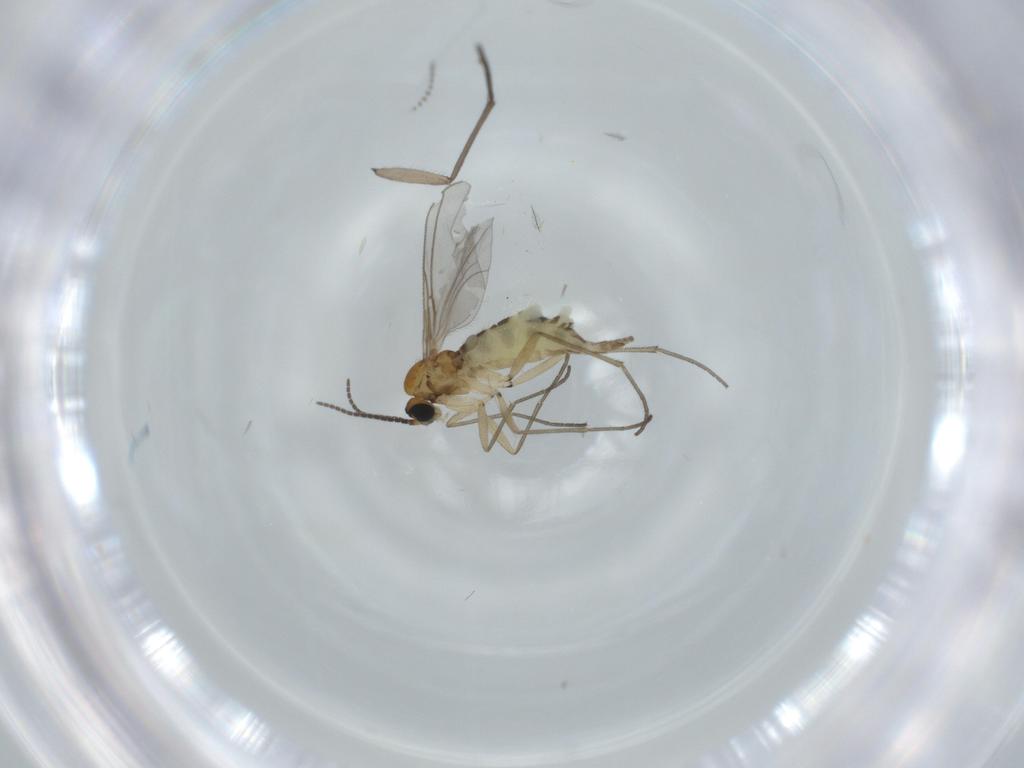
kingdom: Animalia
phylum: Arthropoda
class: Insecta
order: Diptera
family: Psychodidae
